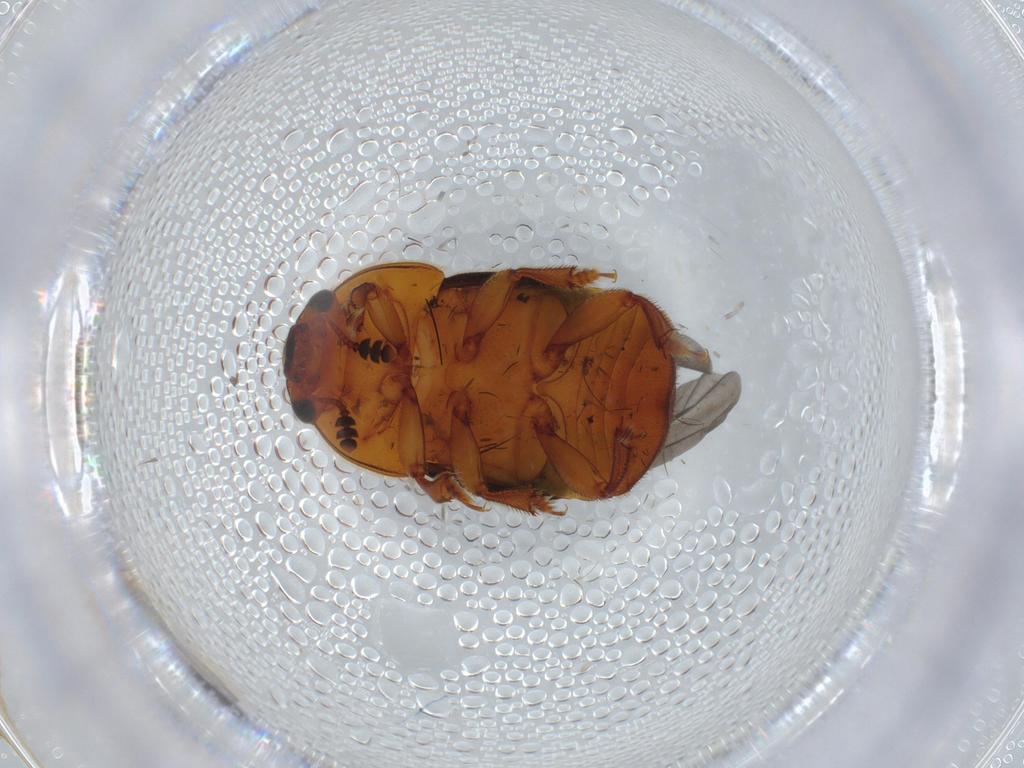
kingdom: Animalia
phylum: Arthropoda
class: Insecta
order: Coleoptera
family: Nitidulidae
